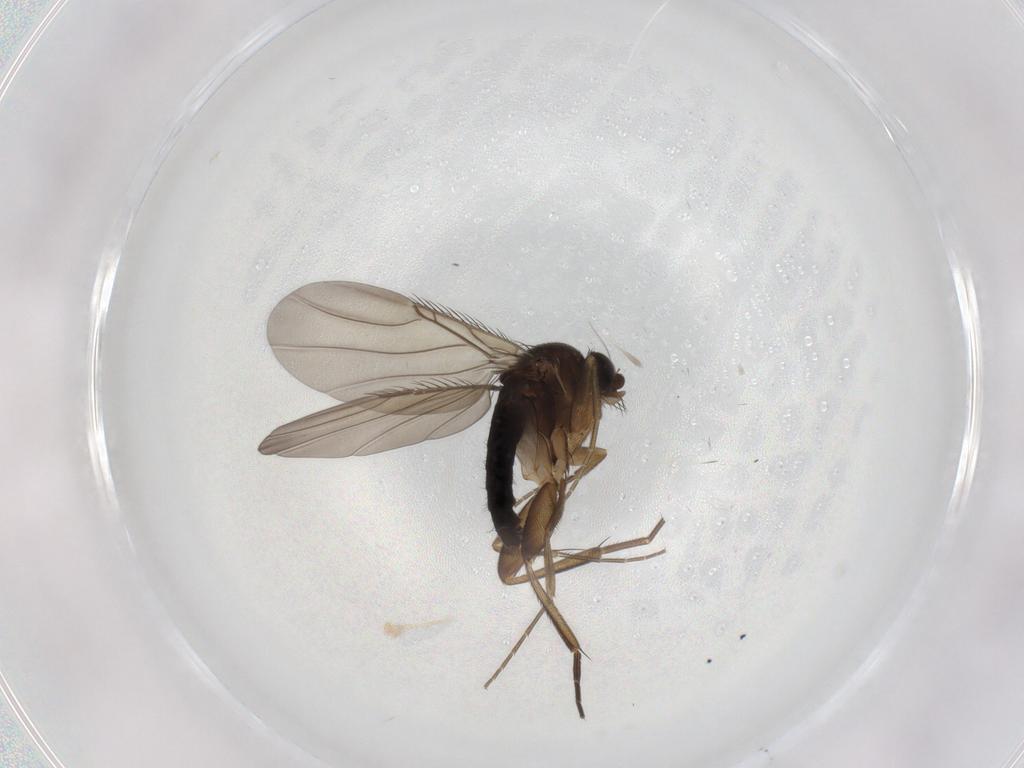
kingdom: Animalia
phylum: Arthropoda
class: Insecta
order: Diptera
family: Phoridae
